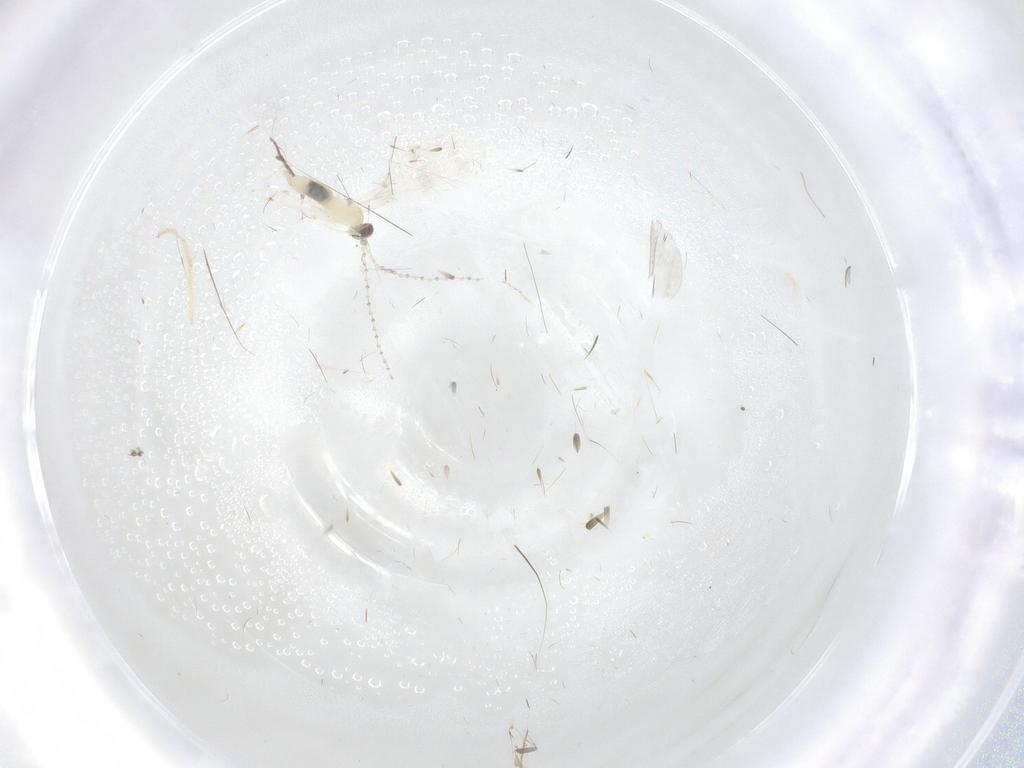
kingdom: Animalia
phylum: Arthropoda
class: Insecta
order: Diptera
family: Cecidomyiidae
